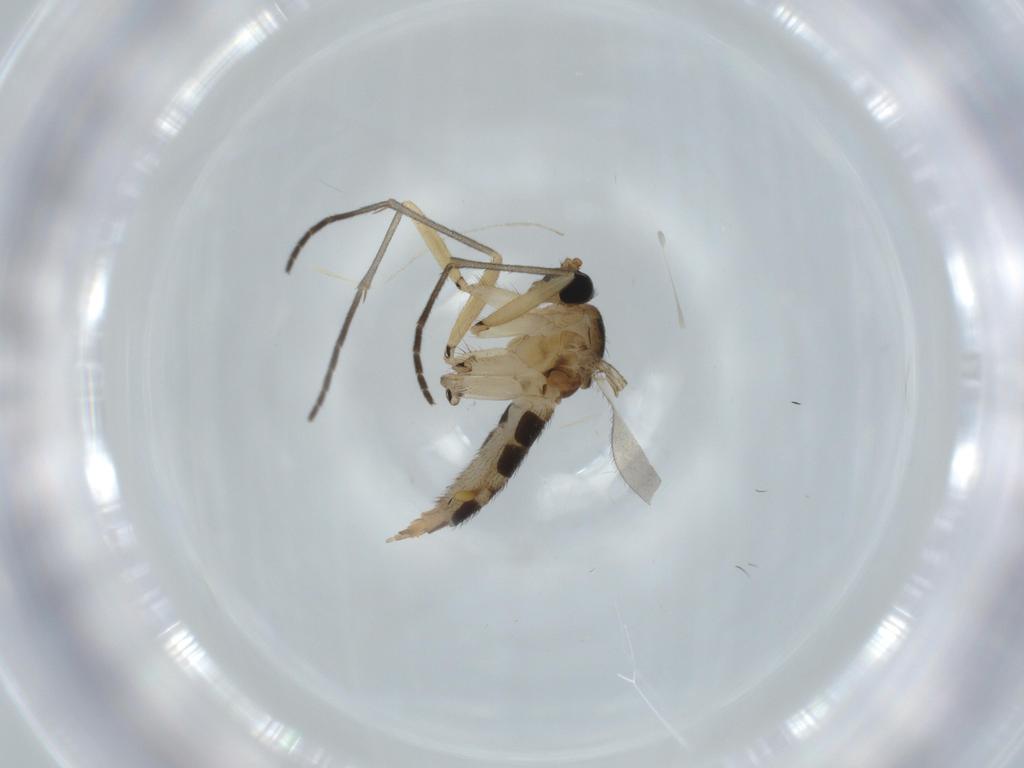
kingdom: Animalia
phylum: Arthropoda
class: Insecta
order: Diptera
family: Sciaridae
